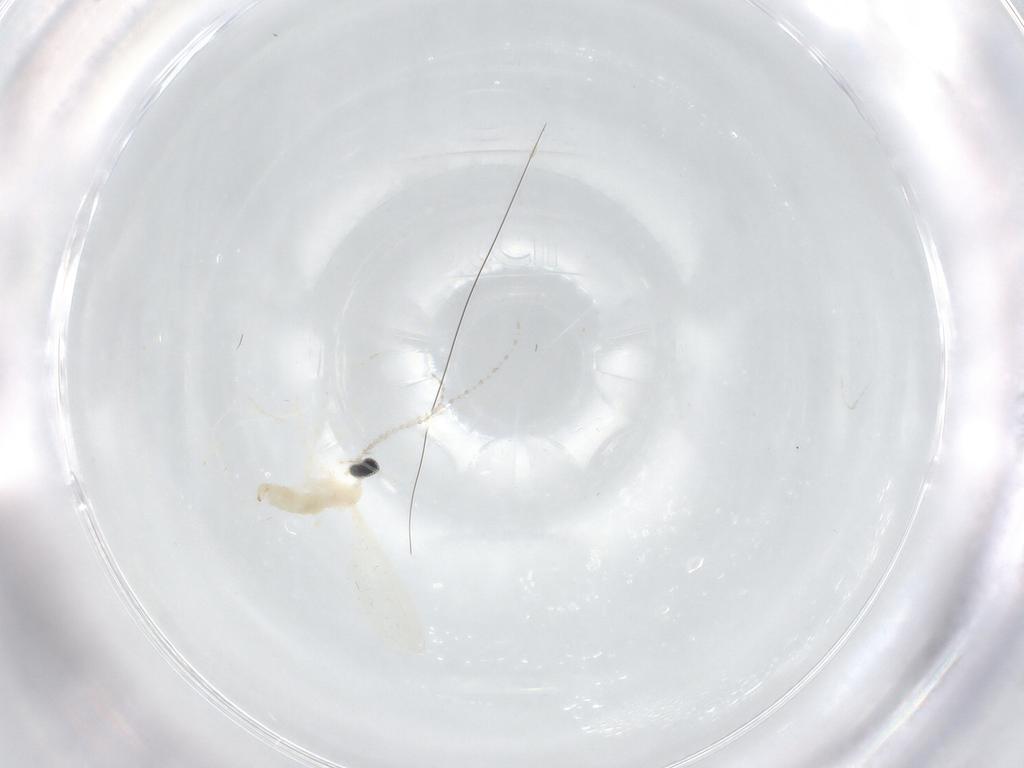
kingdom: Animalia
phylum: Arthropoda
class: Insecta
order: Diptera
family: Cecidomyiidae
